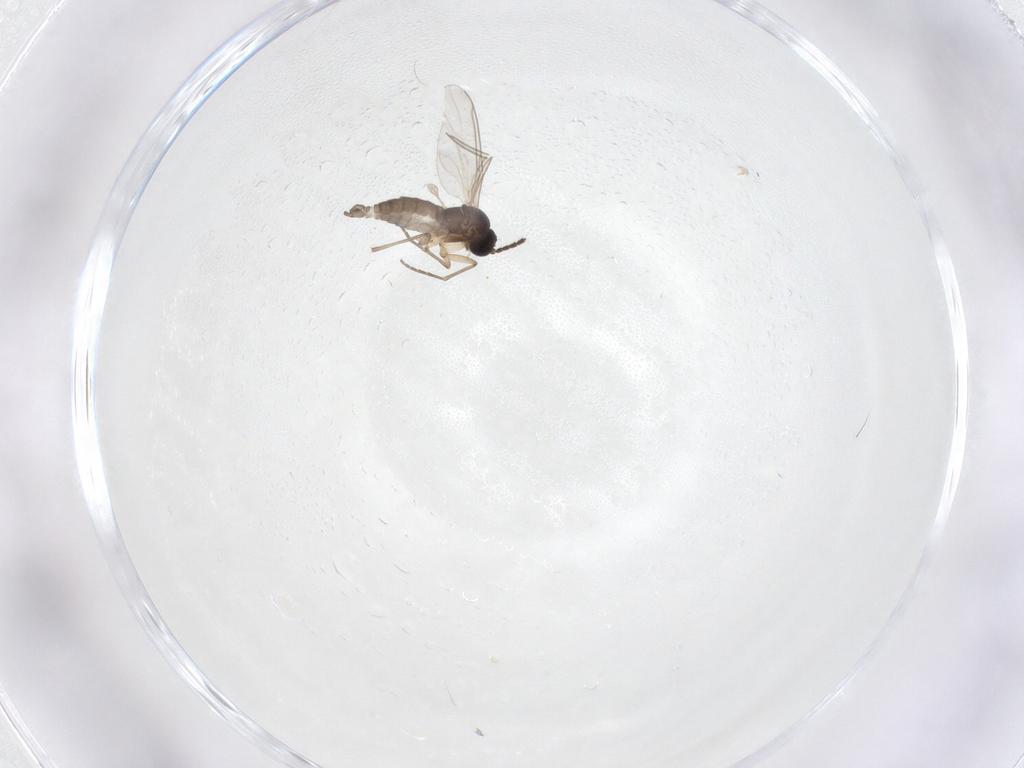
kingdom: Animalia
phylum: Arthropoda
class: Insecta
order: Diptera
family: Sciaridae
